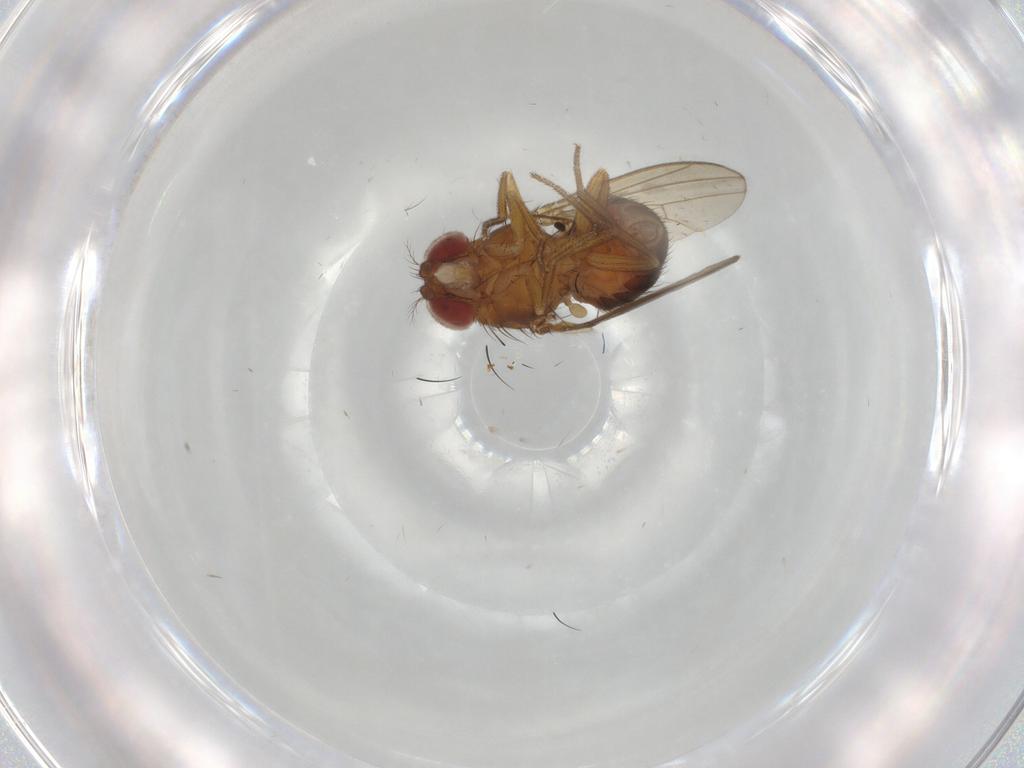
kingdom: Animalia
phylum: Arthropoda
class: Insecta
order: Diptera
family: Drosophilidae
